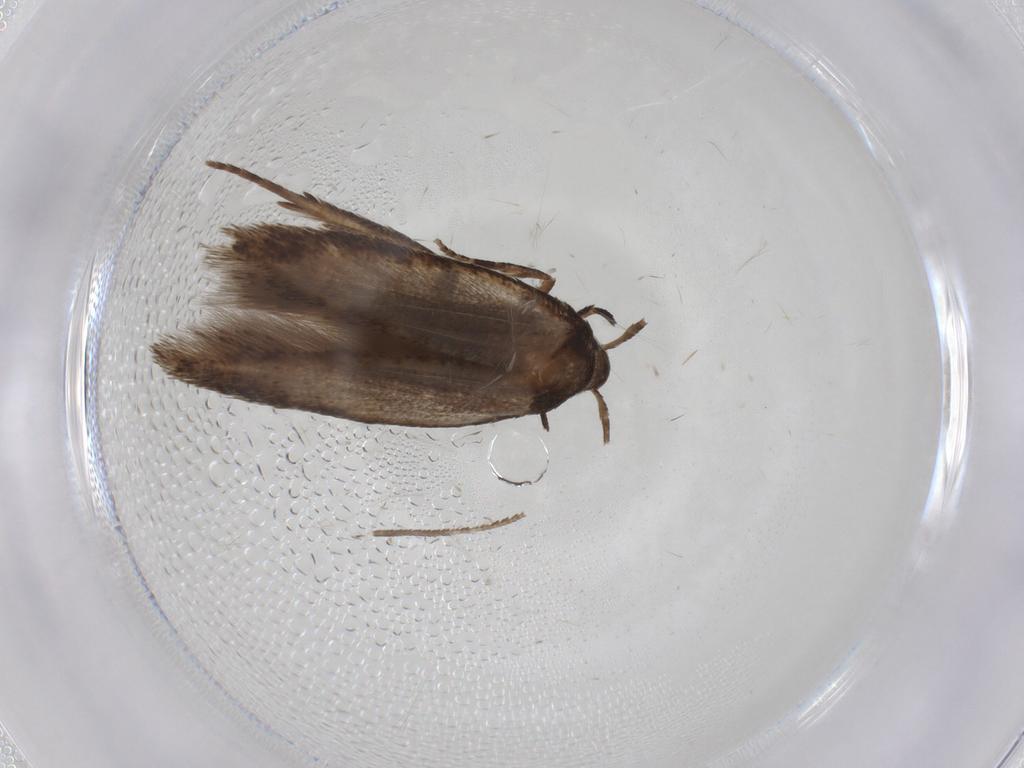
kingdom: Animalia
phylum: Arthropoda
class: Insecta
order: Lepidoptera
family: Cosmopterigidae
